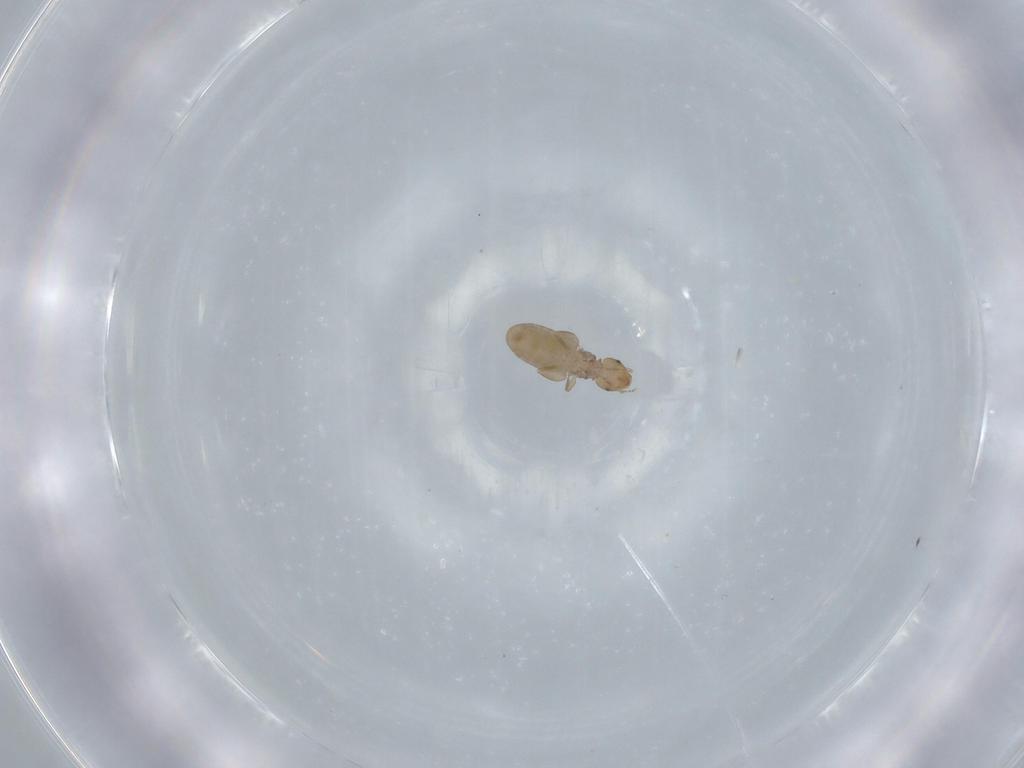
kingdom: Animalia
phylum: Arthropoda
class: Insecta
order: Psocodea
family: Liposcelididae
